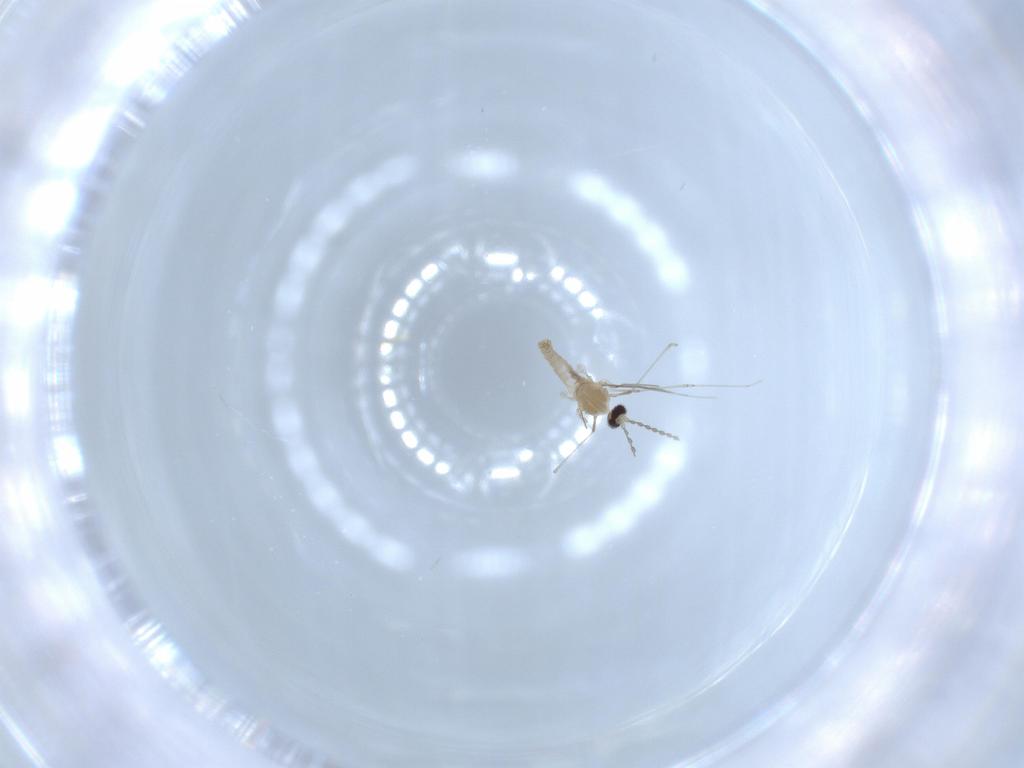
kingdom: Animalia
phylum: Arthropoda
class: Insecta
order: Diptera
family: Cecidomyiidae
